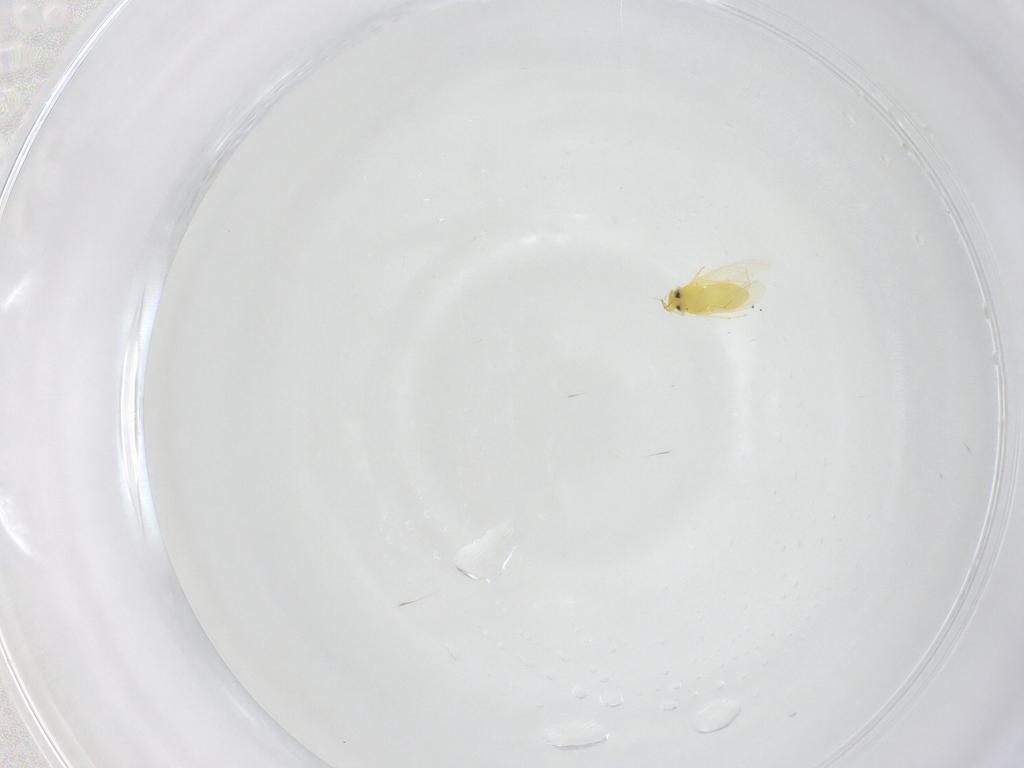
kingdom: Animalia
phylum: Arthropoda
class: Insecta
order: Hemiptera
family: Aleyrodidae
